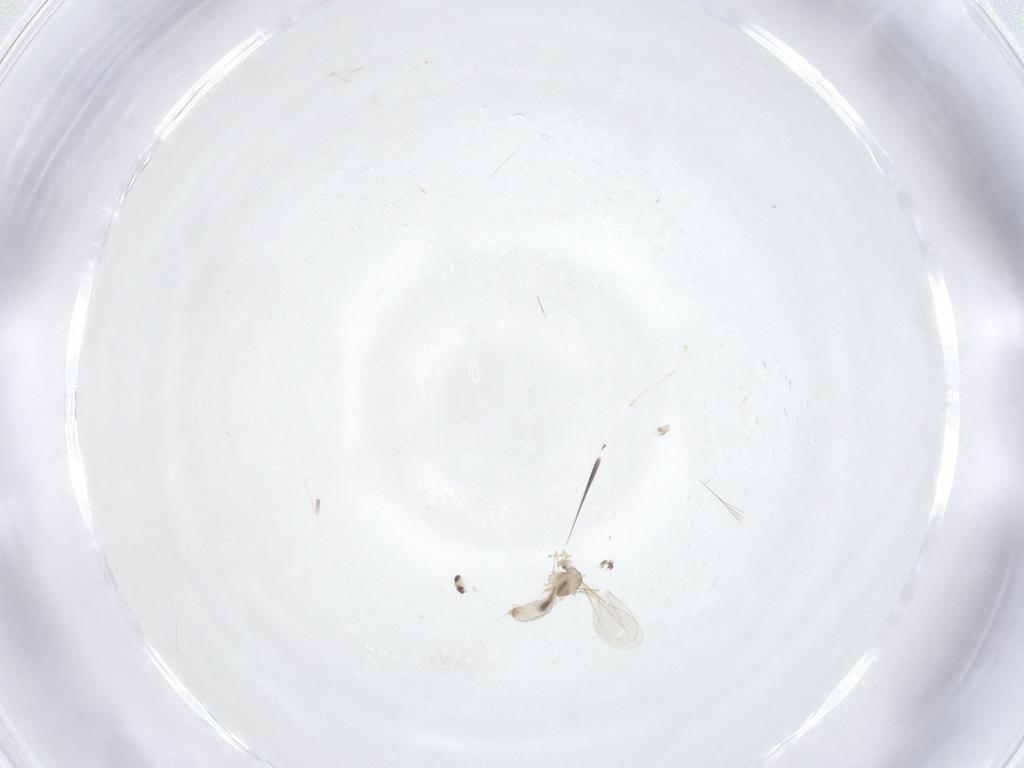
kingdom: Animalia
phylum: Arthropoda
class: Insecta
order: Diptera
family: Cecidomyiidae
